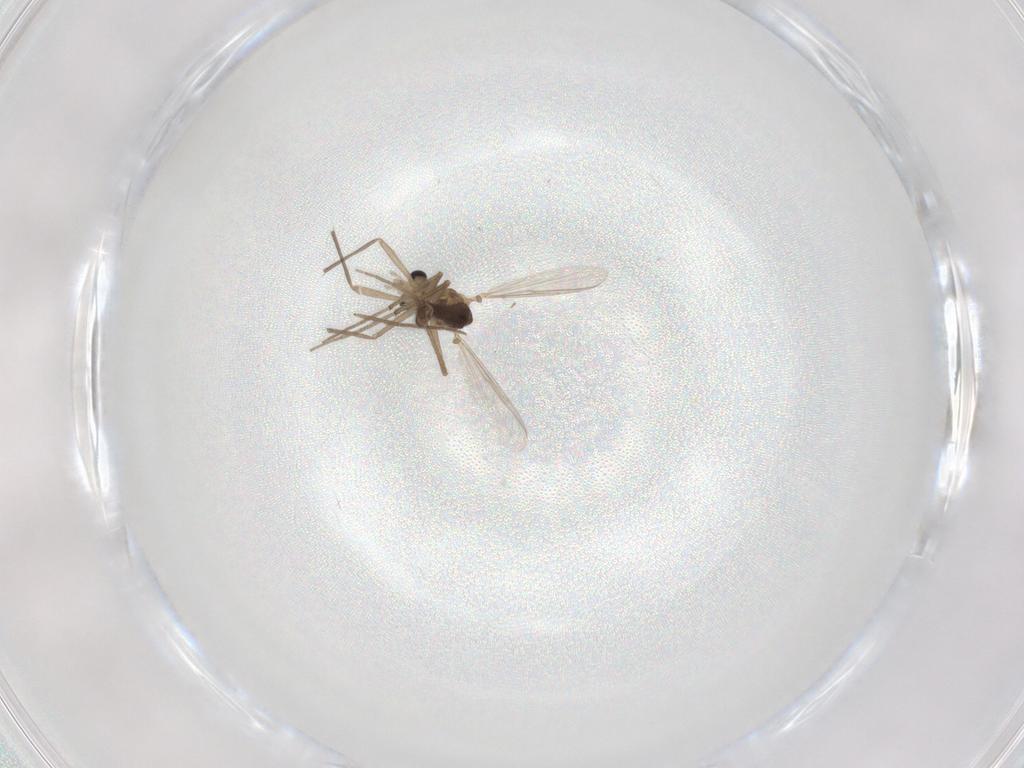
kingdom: Animalia
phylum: Arthropoda
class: Insecta
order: Diptera
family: Chironomidae
